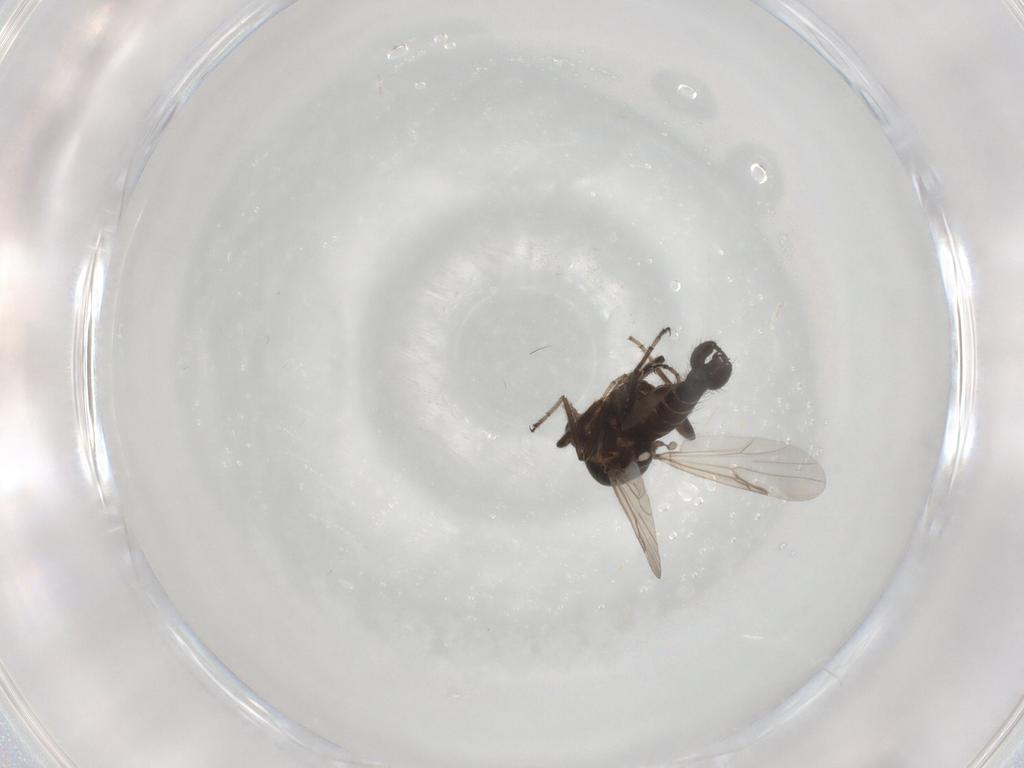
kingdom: Animalia
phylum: Arthropoda
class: Insecta
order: Diptera
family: Ceratopogonidae
